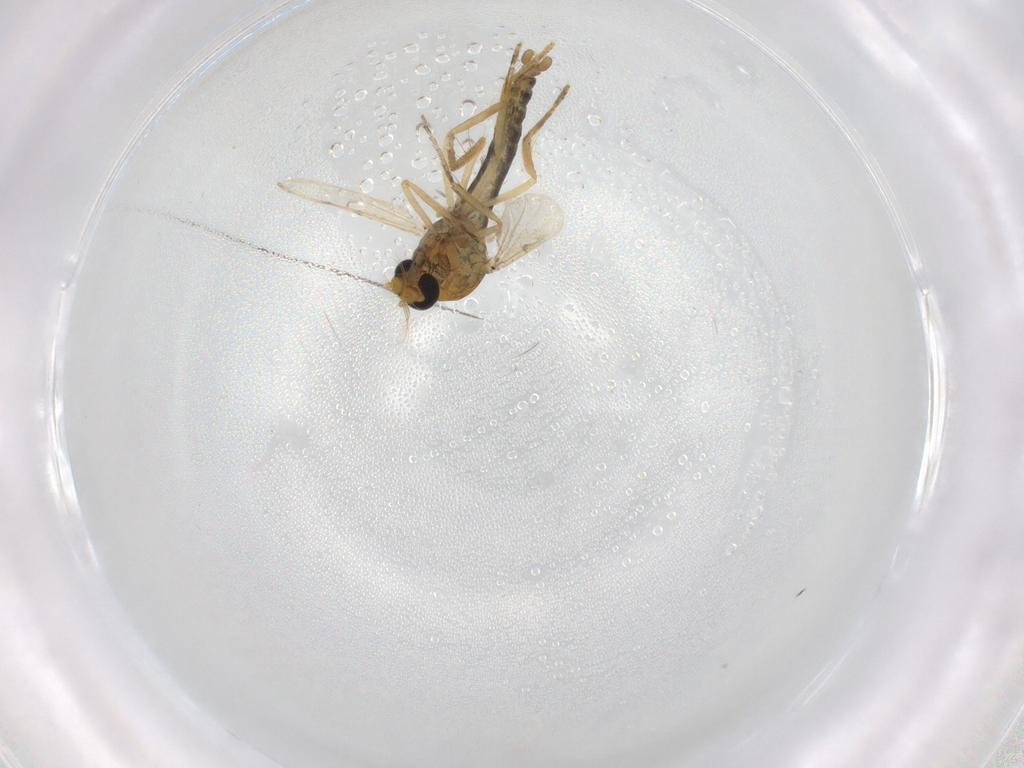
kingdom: Animalia
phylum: Arthropoda
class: Insecta
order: Diptera
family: Ceratopogonidae
